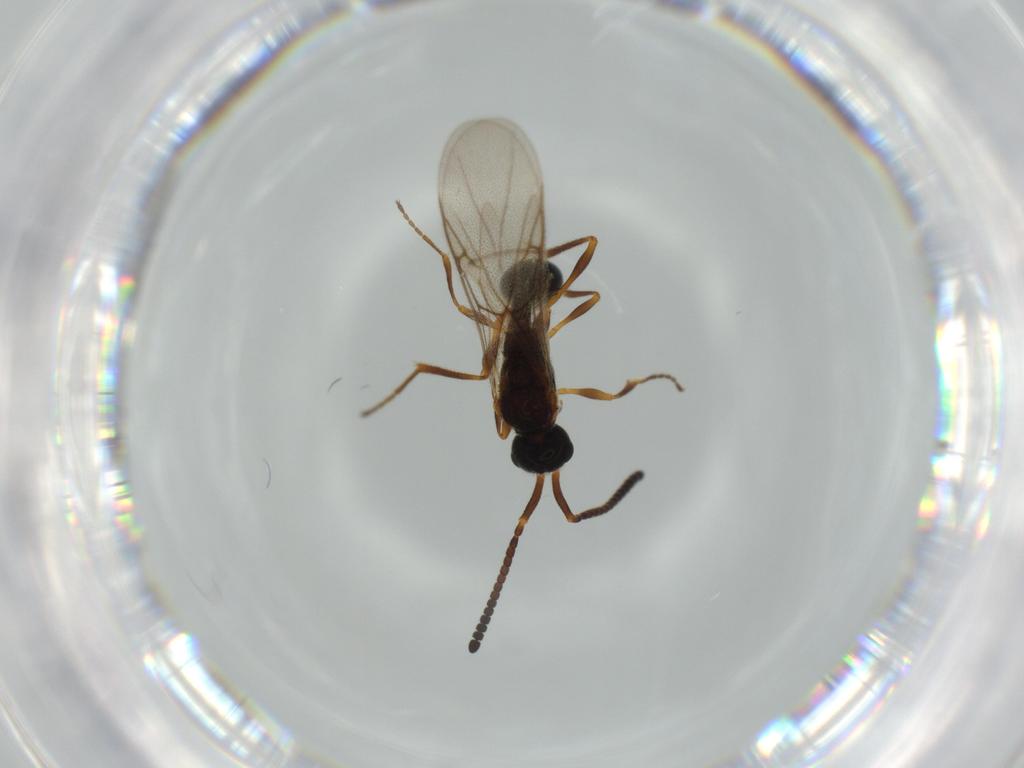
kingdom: Animalia
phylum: Arthropoda
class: Insecta
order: Hymenoptera
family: Diapriidae
